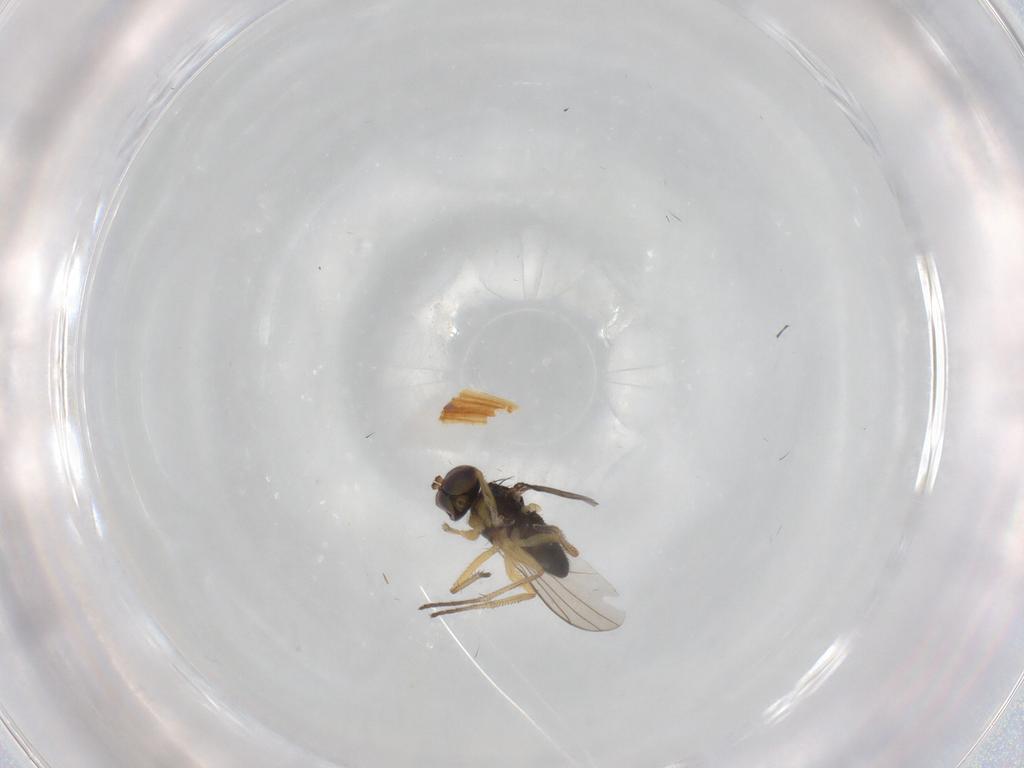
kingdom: Animalia
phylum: Arthropoda
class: Insecta
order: Diptera
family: Dolichopodidae
